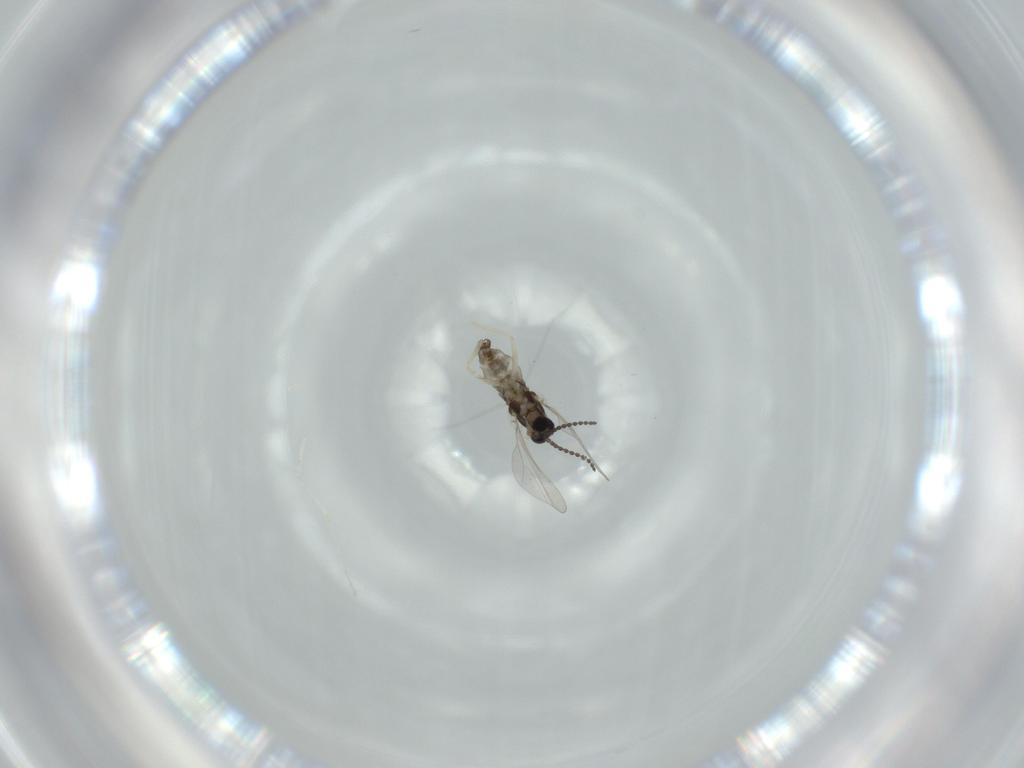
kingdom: Animalia
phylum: Arthropoda
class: Insecta
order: Diptera
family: Cecidomyiidae
